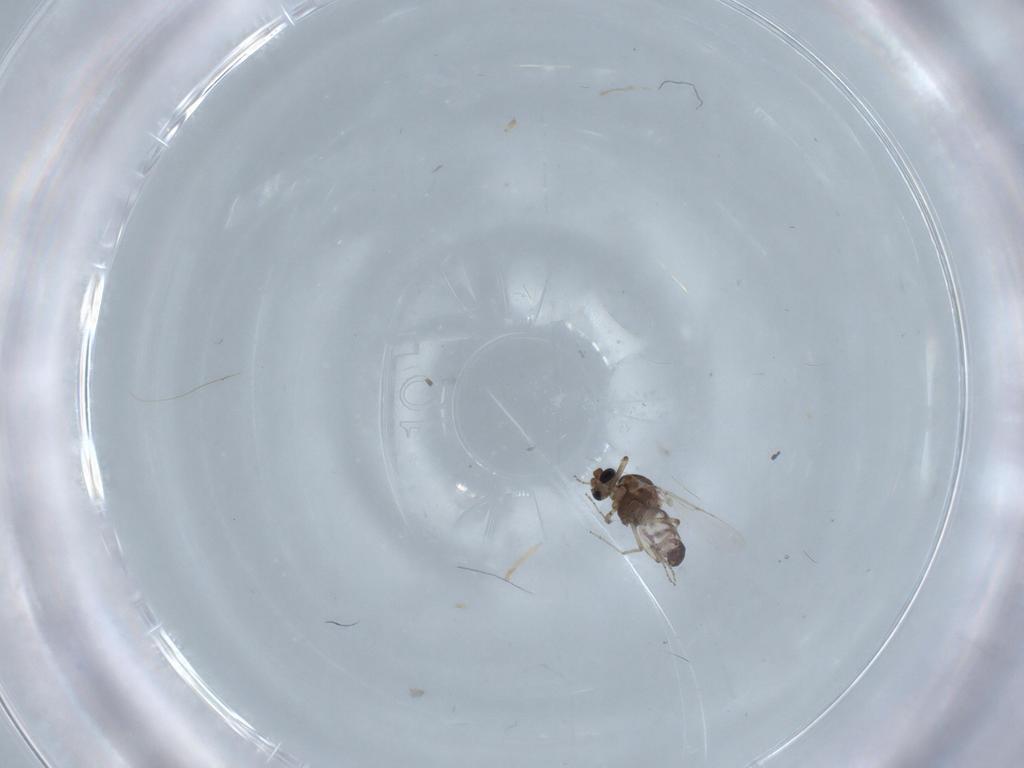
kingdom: Animalia
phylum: Arthropoda
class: Insecta
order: Diptera
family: Ceratopogonidae
